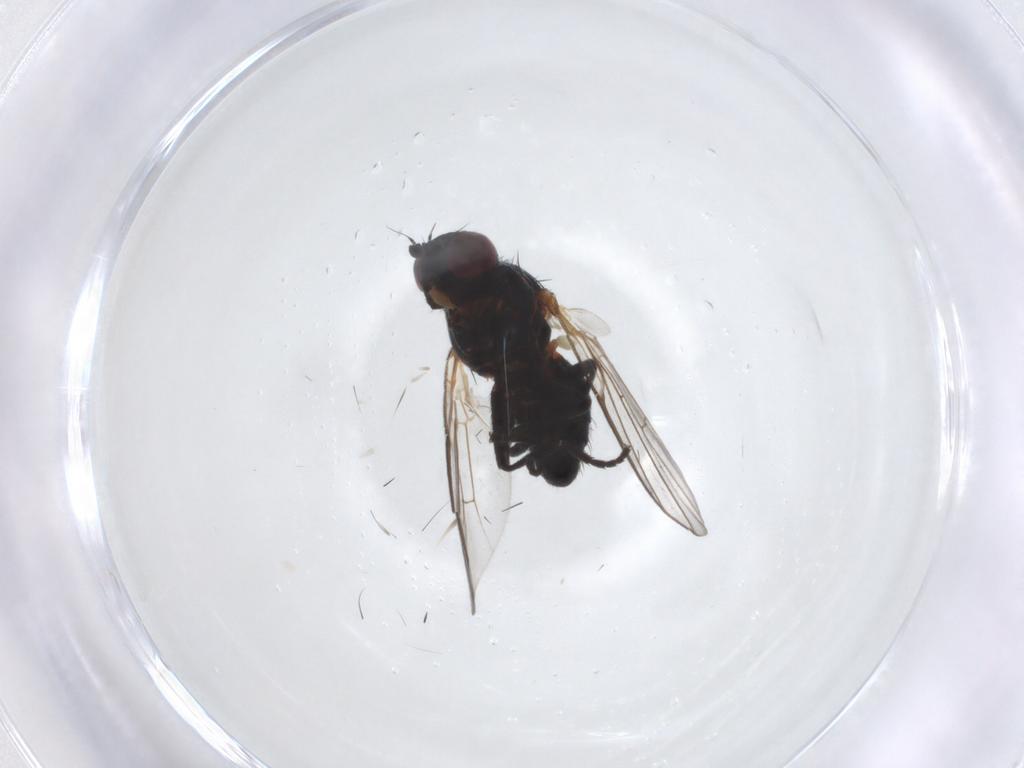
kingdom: Animalia
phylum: Arthropoda
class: Insecta
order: Diptera
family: Agromyzidae
